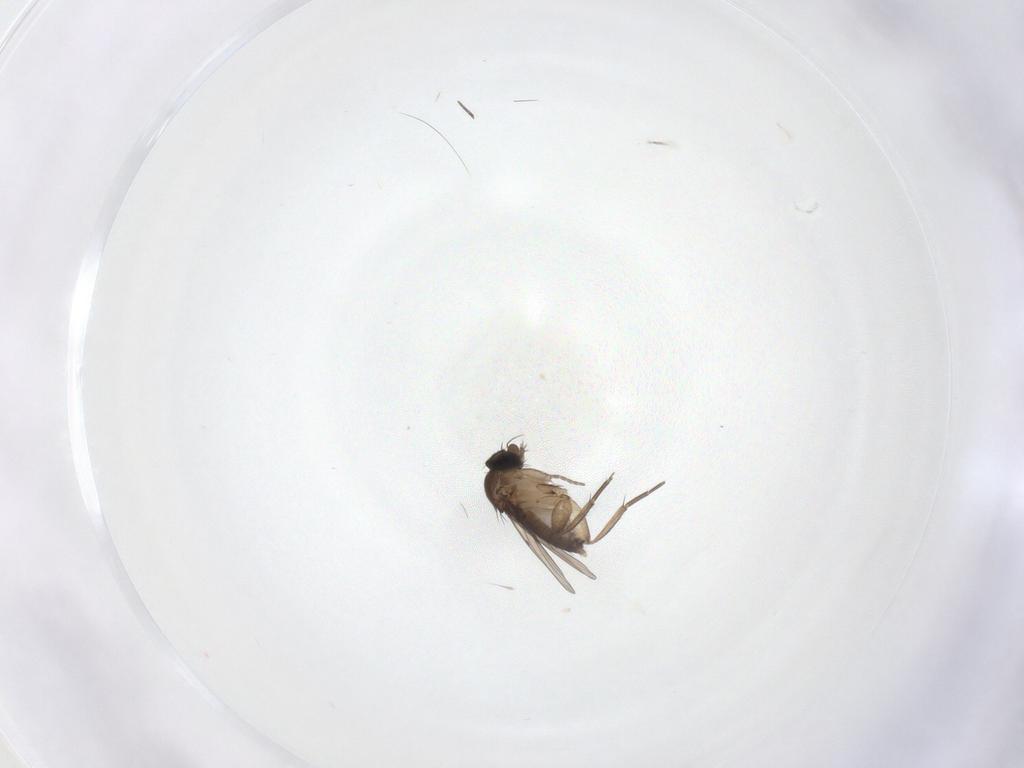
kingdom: Animalia
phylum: Arthropoda
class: Insecta
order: Diptera
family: Phoridae
